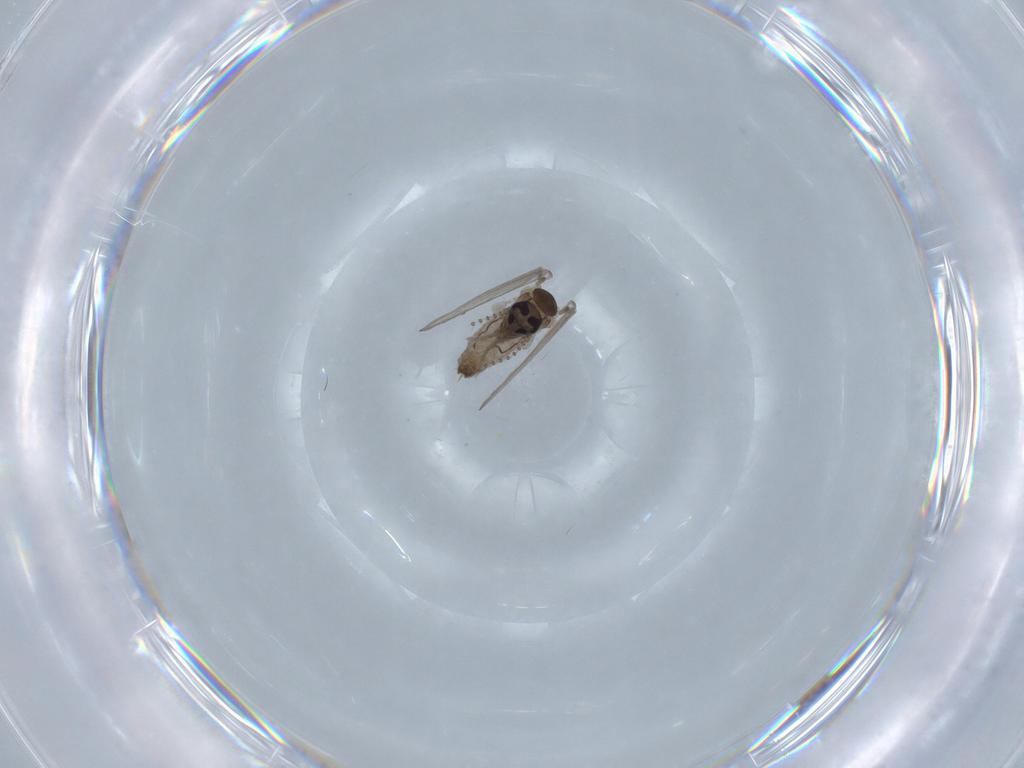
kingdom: Animalia
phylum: Arthropoda
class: Insecta
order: Diptera
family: Psychodidae
